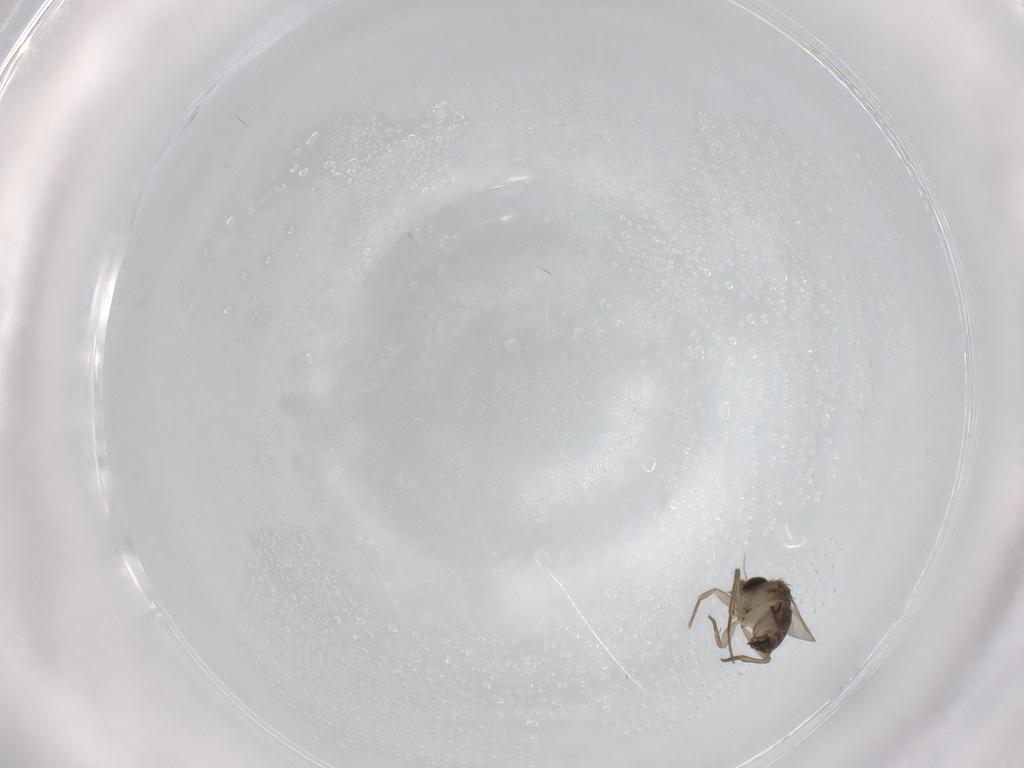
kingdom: Animalia
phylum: Arthropoda
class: Insecta
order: Diptera
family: Phoridae
